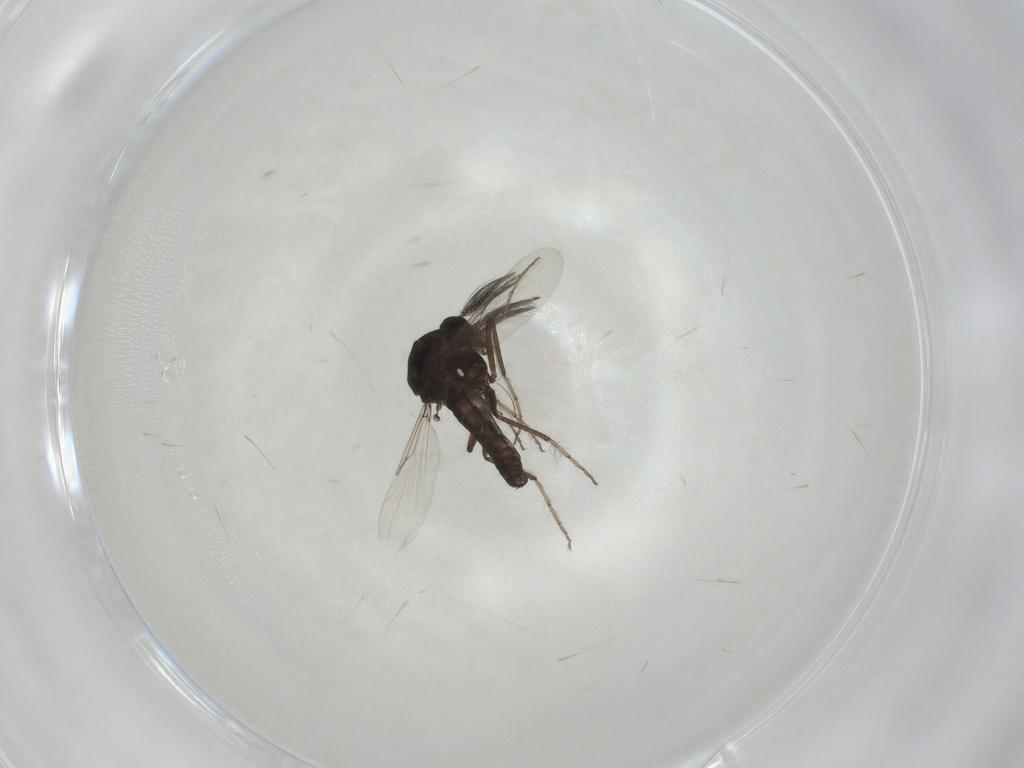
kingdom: Animalia
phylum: Arthropoda
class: Insecta
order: Diptera
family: Ceratopogonidae
